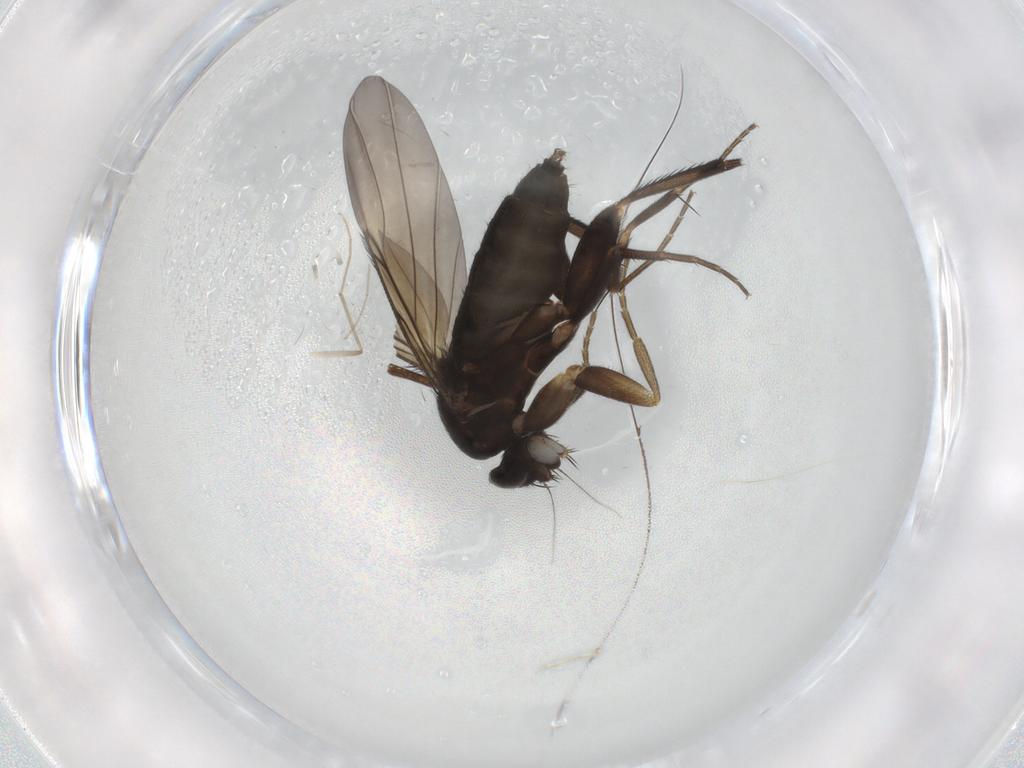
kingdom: Animalia
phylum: Arthropoda
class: Insecta
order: Diptera
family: Phoridae
